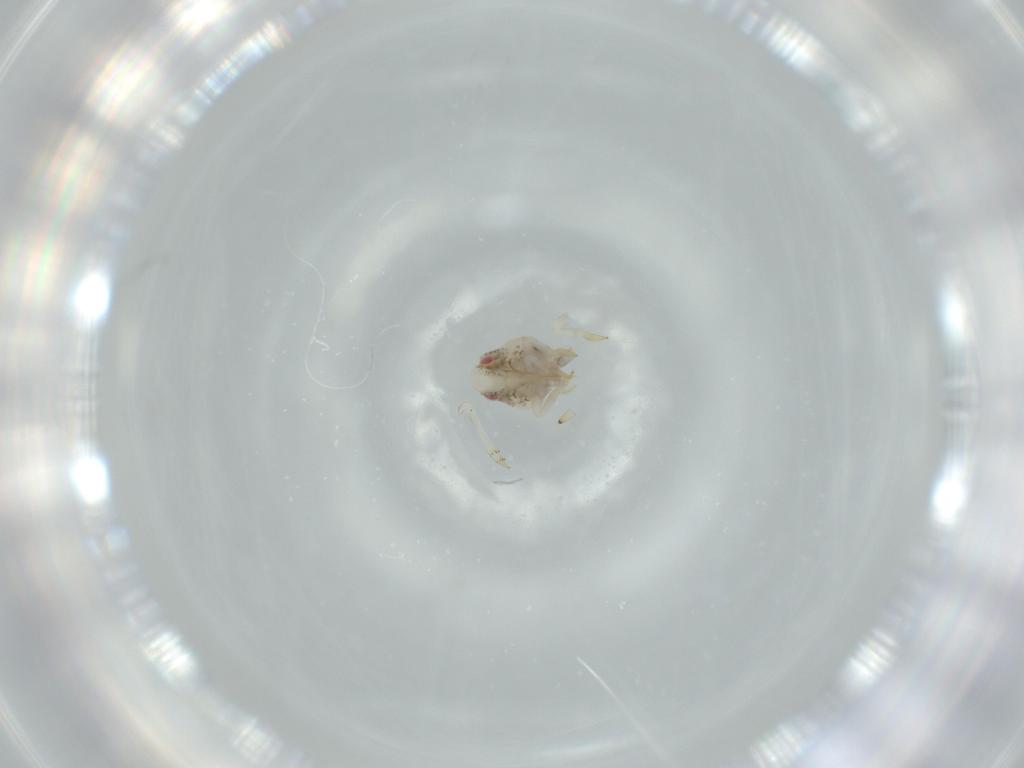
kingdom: Animalia
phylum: Arthropoda
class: Insecta
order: Hemiptera
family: Acanaloniidae
